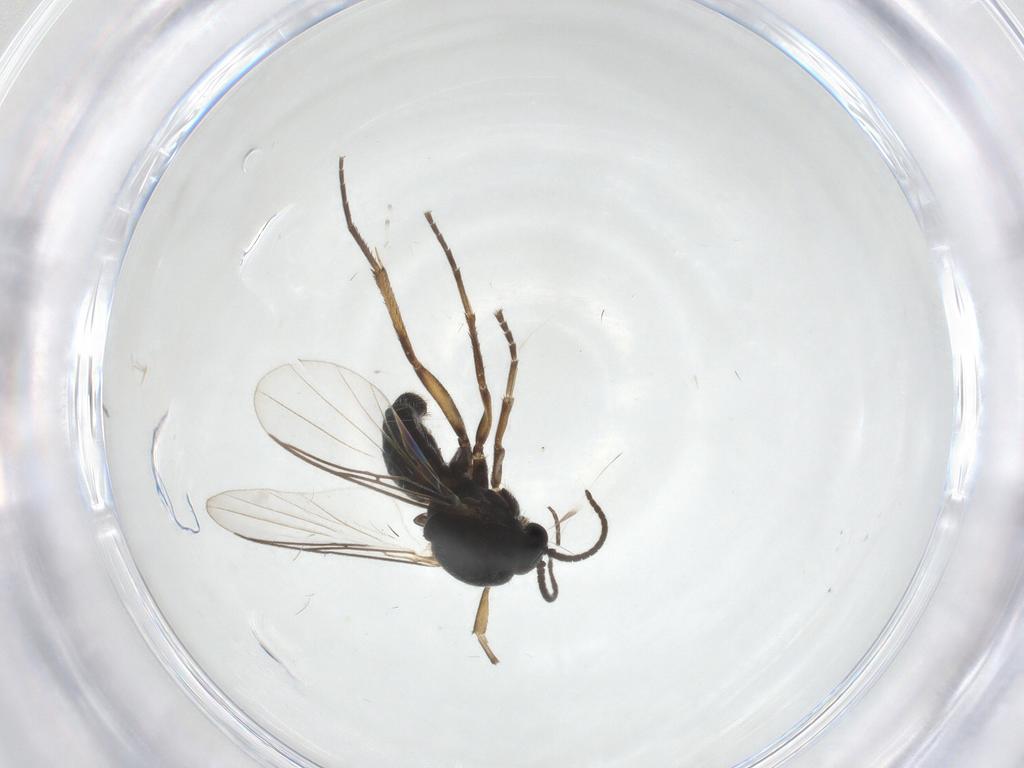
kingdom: Animalia
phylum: Arthropoda
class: Insecta
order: Diptera
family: Mycetophilidae
